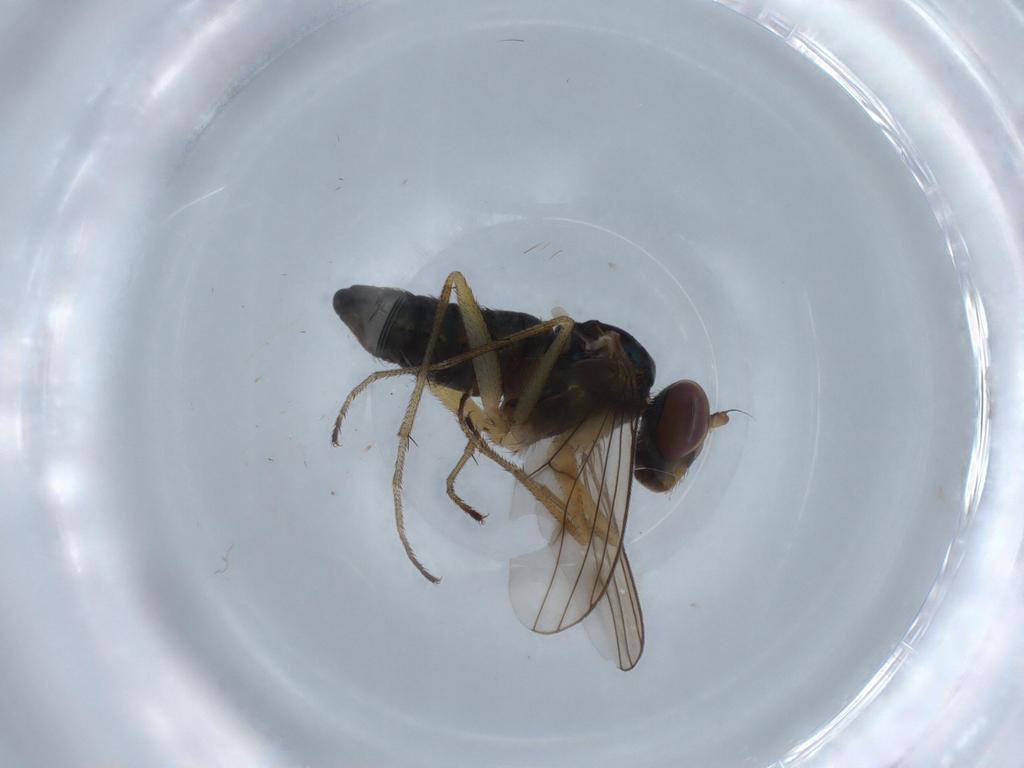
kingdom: Animalia
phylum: Arthropoda
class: Insecta
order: Diptera
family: Dolichopodidae
